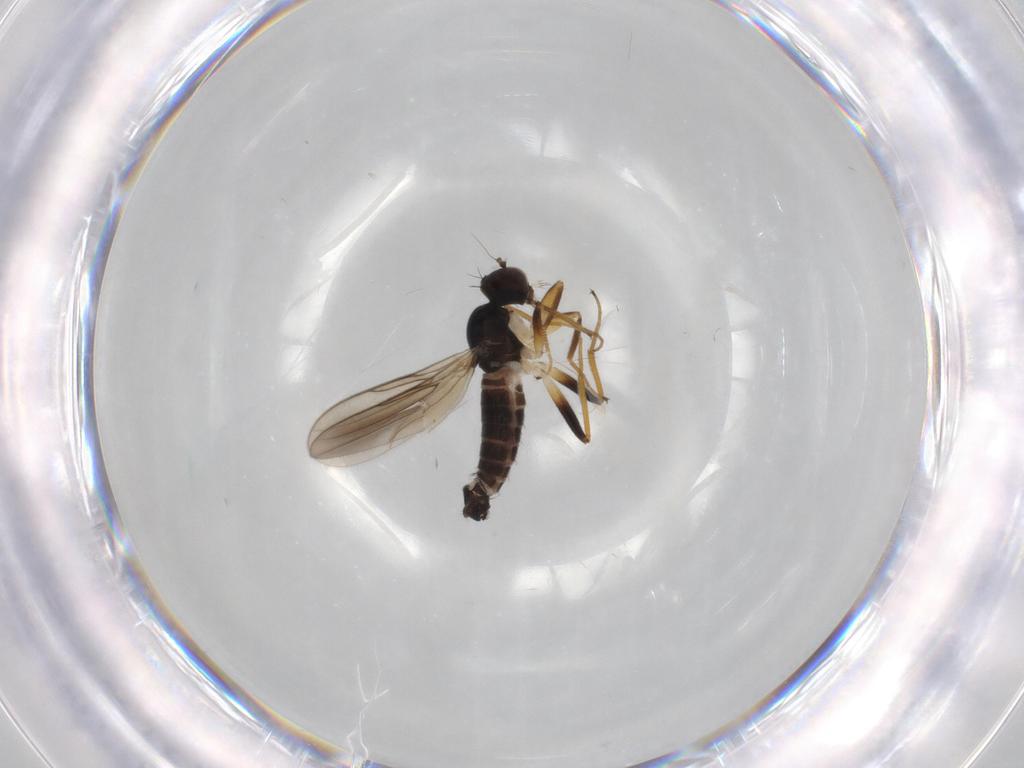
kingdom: Animalia
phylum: Arthropoda
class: Insecta
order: Diptera
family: Hybotidae
